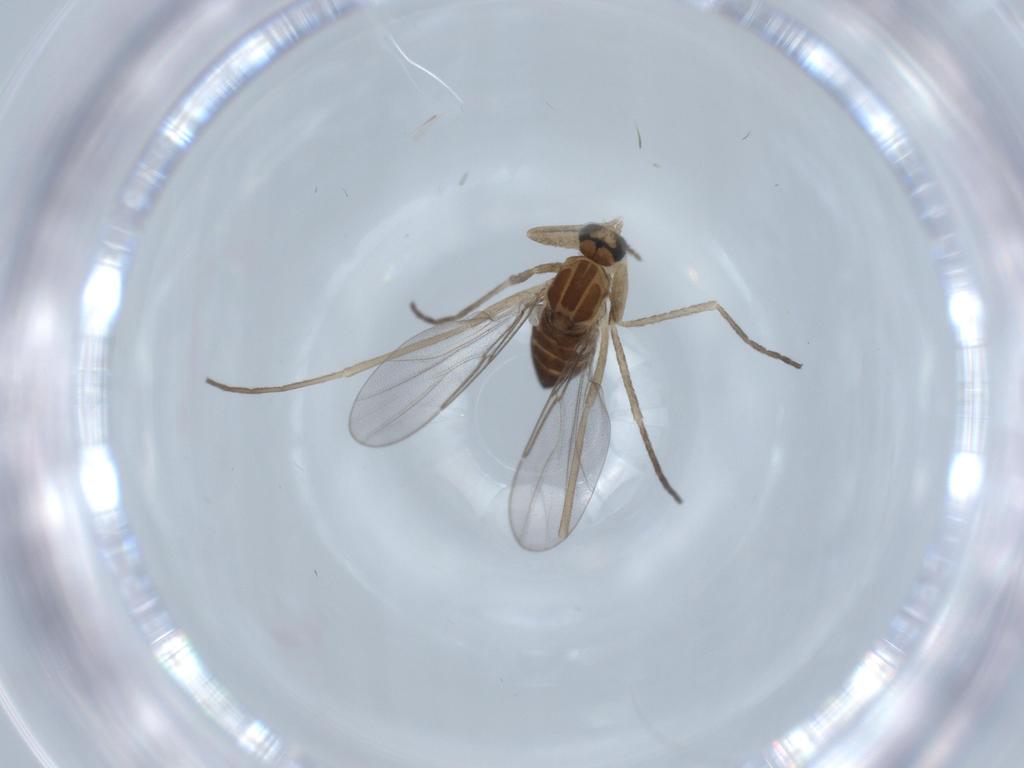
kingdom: Animalia
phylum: Arthropoda
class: Insecta
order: Diptera
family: Cecidomyiidae
